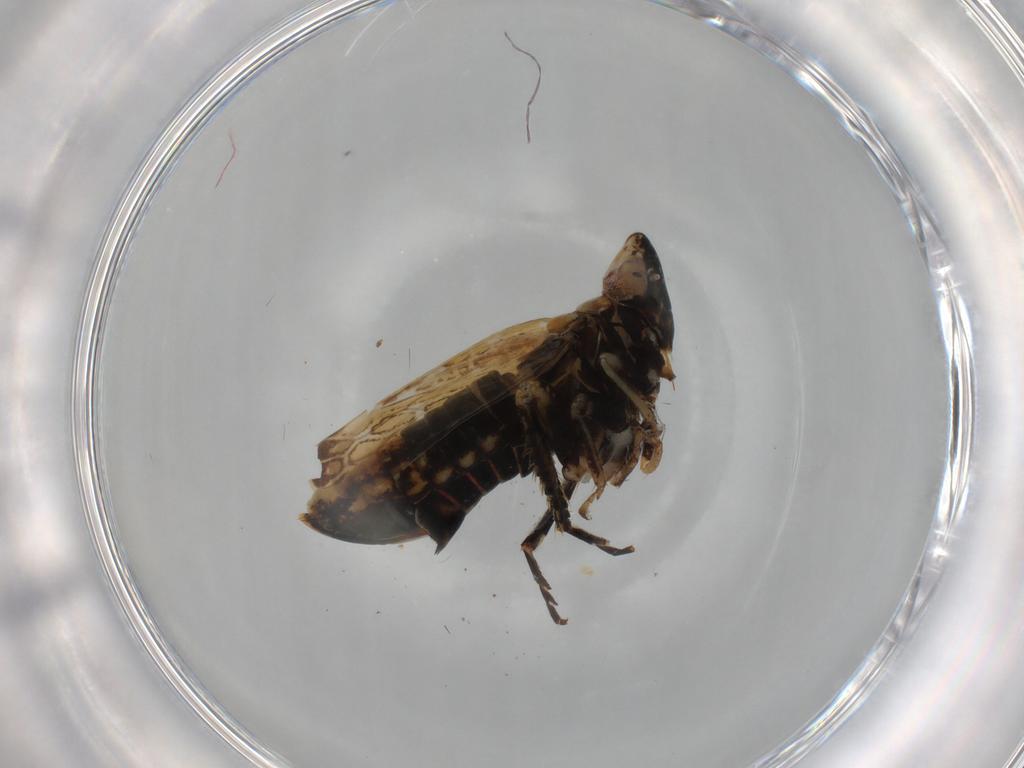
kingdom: Animalia
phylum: Arthropoda
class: Insecta
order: Hemiptera
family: Cicadellidae
